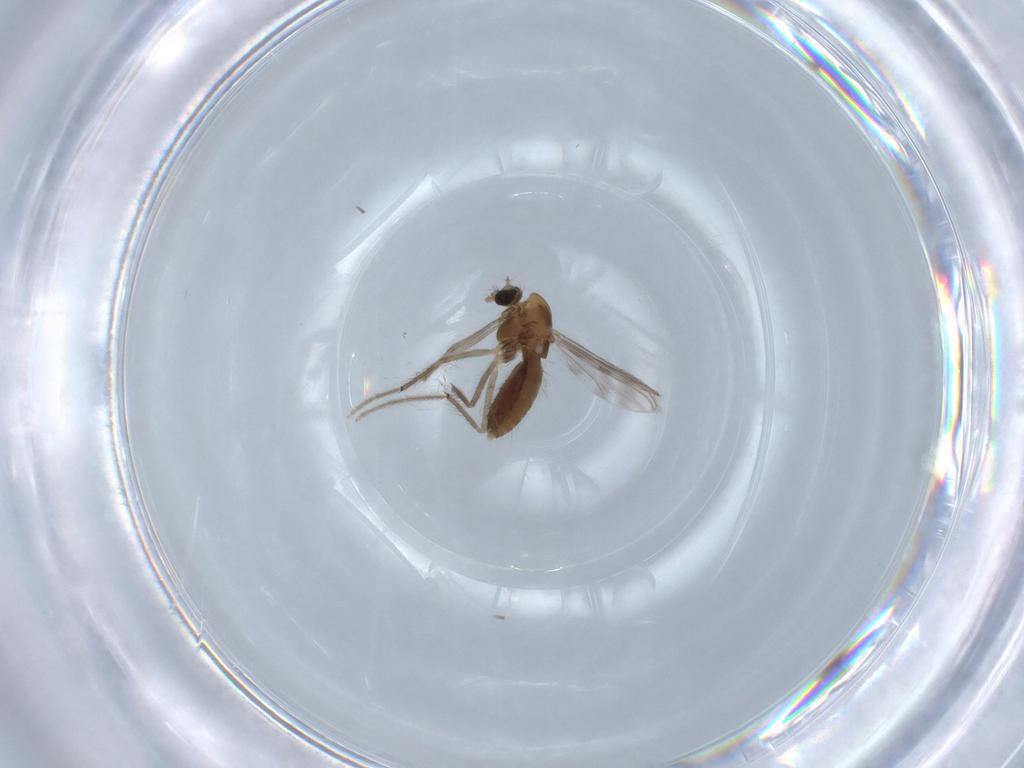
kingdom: Animalia
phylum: Arthropoda
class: Insecta
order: Diptera
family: Chironomidae
